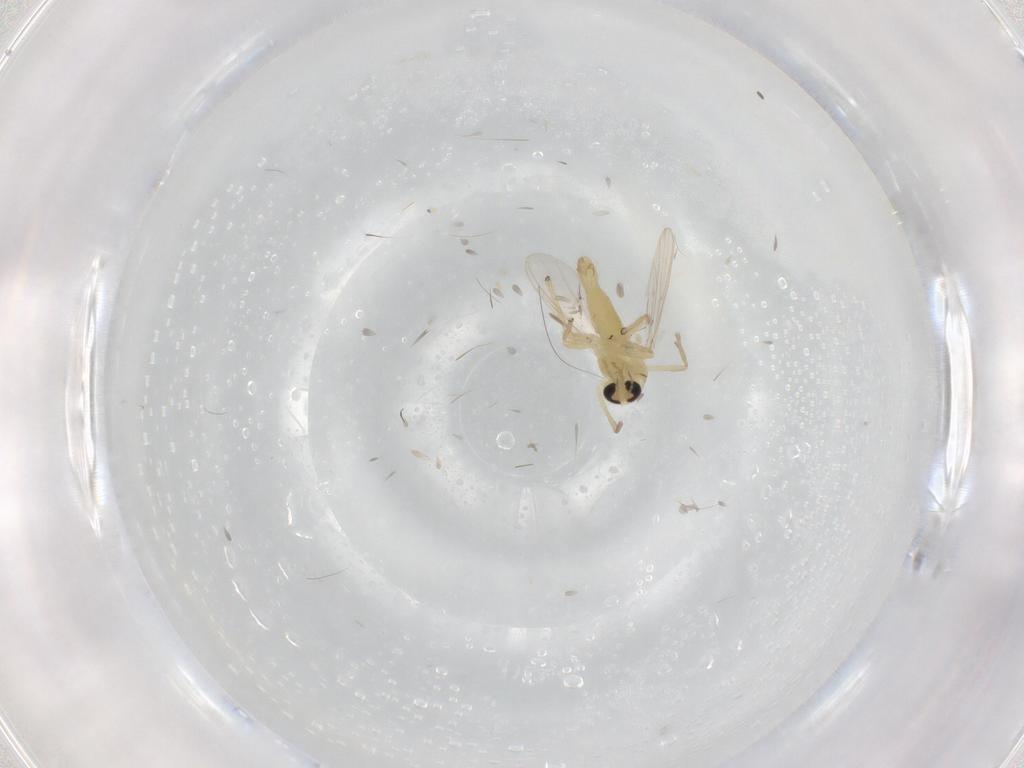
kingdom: Animalia
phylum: Arthropoda
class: Insecta
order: Diptera
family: Chironomidae
